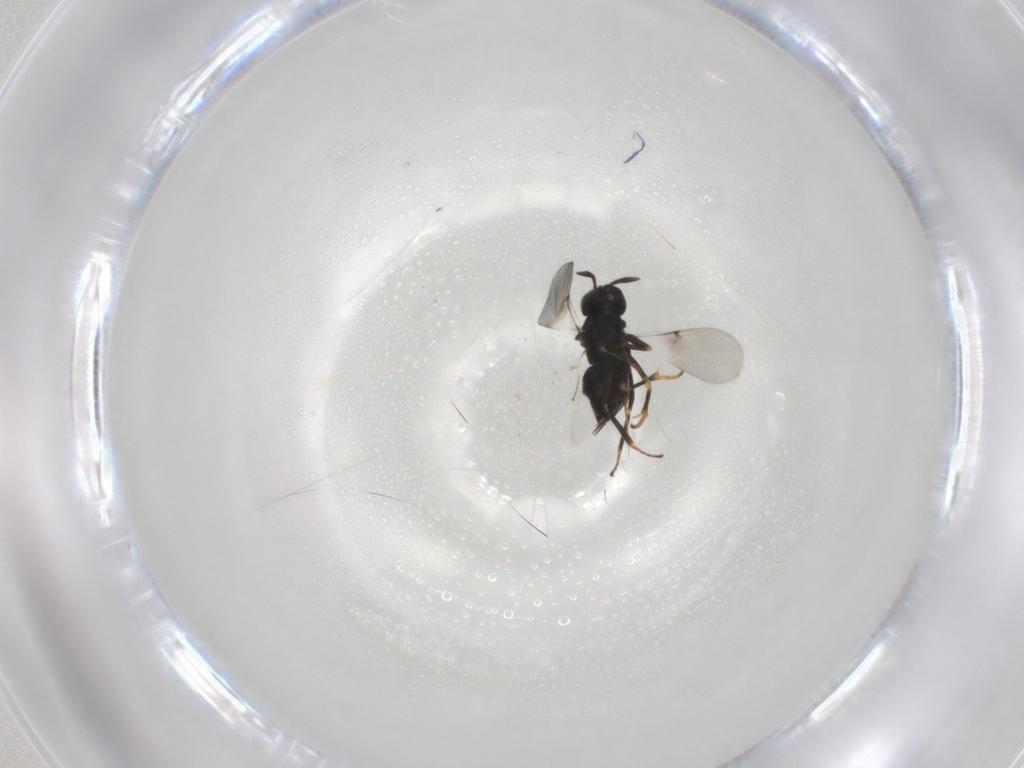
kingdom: Animalia
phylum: Arthropoda
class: Insecta
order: Hymenoptera
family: Encyrtidae
